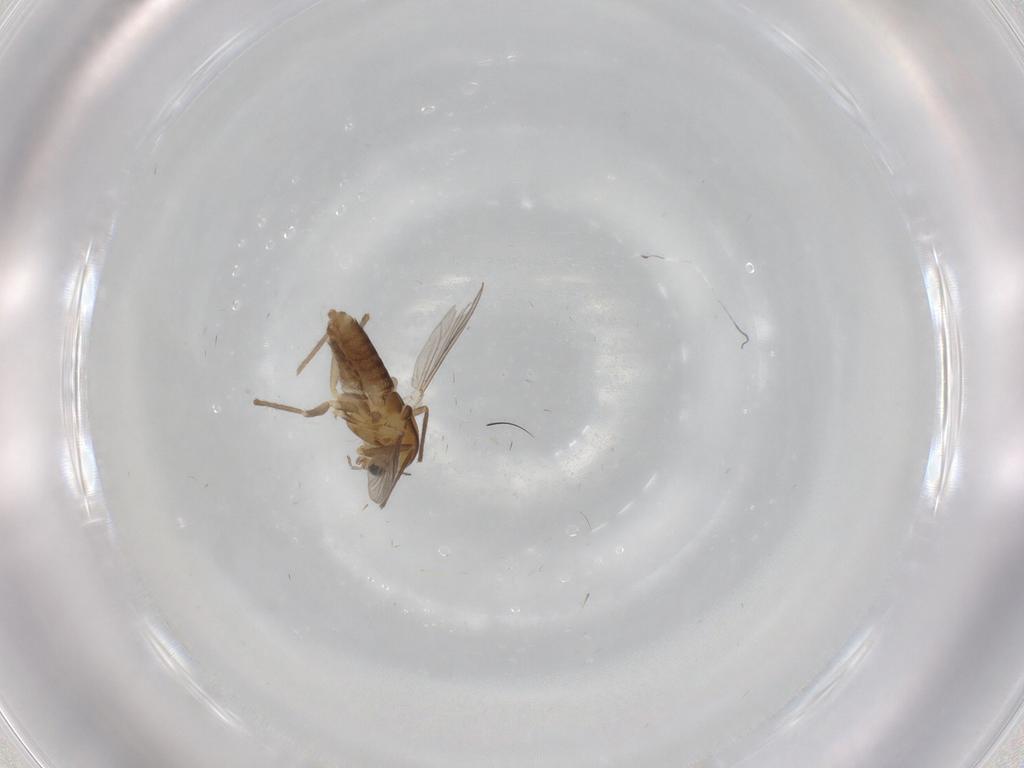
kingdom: Animalia
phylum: Arthropoda
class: Insecta
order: Diptera
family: Chironomidae
